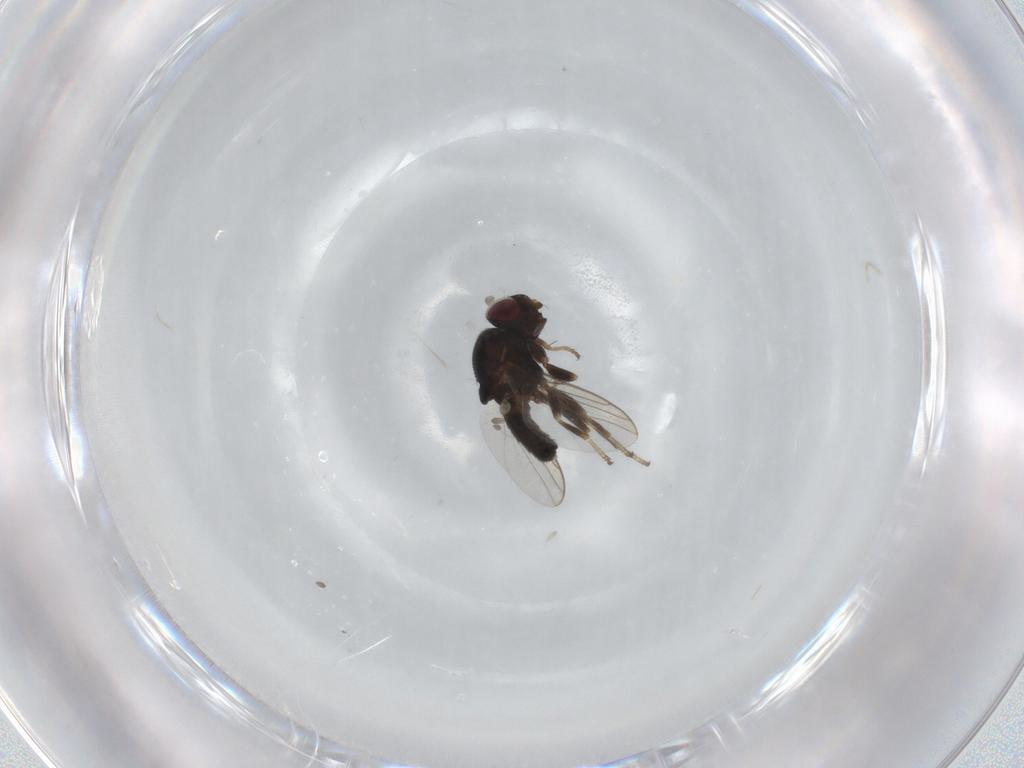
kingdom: Animalia
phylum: Arthropoda
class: Insecta
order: Diptera
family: Chloropidae
